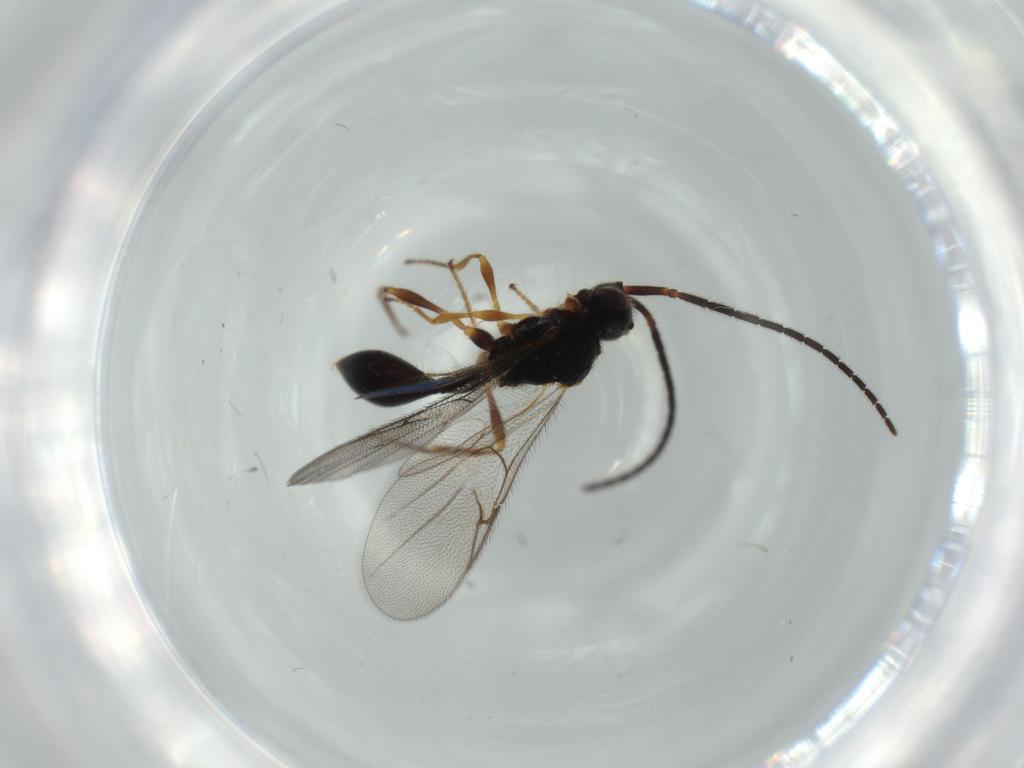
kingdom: Animalia
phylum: Arthropoda
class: Insecta
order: Hymenoptera
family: Diapriidae
